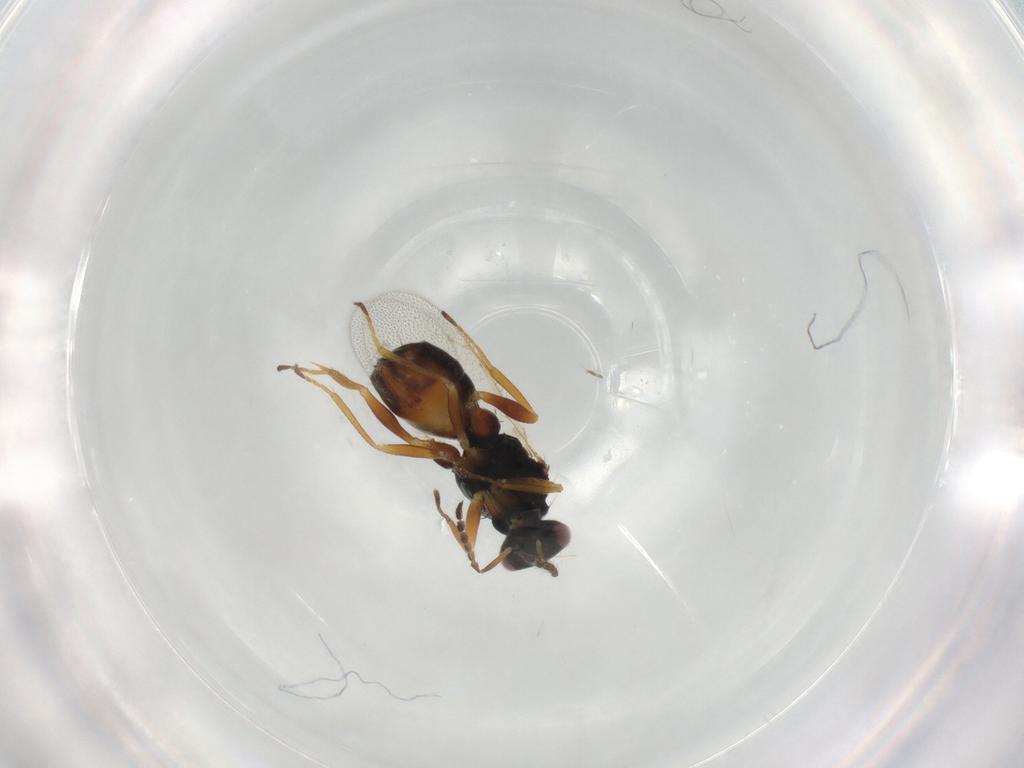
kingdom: Animalia
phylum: Arthropoda
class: Insecta
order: Hymenoptera
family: Eulophidae
